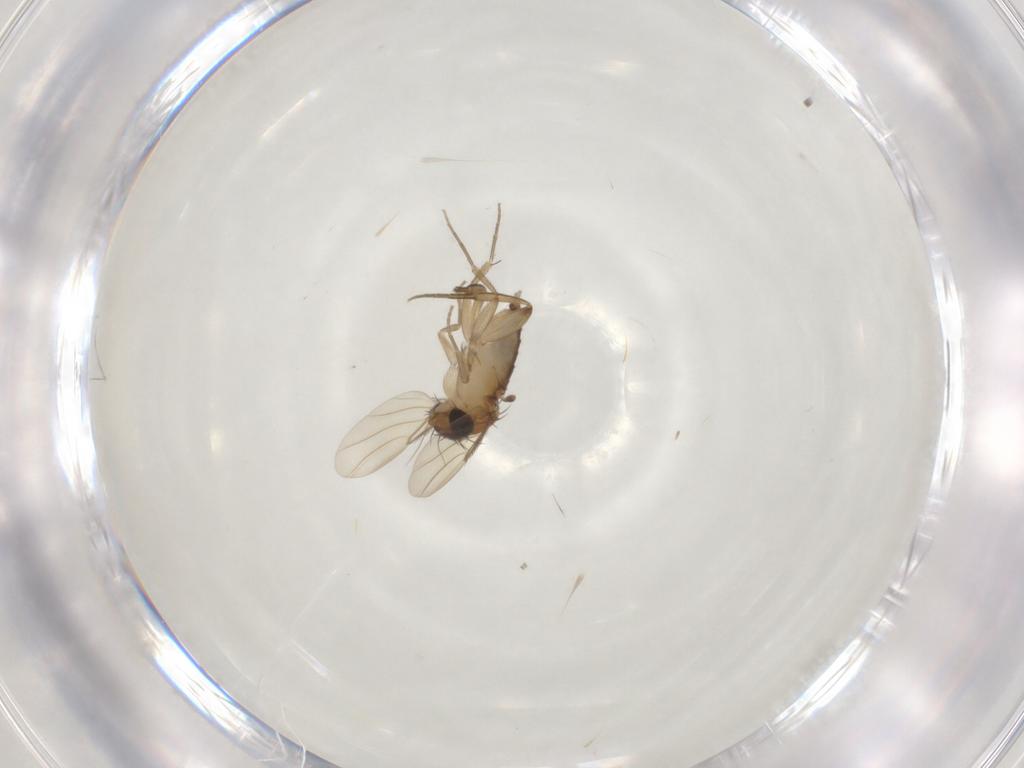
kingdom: Animalia
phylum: Arthropoda
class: Insecta
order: Diptera
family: Phoridae
